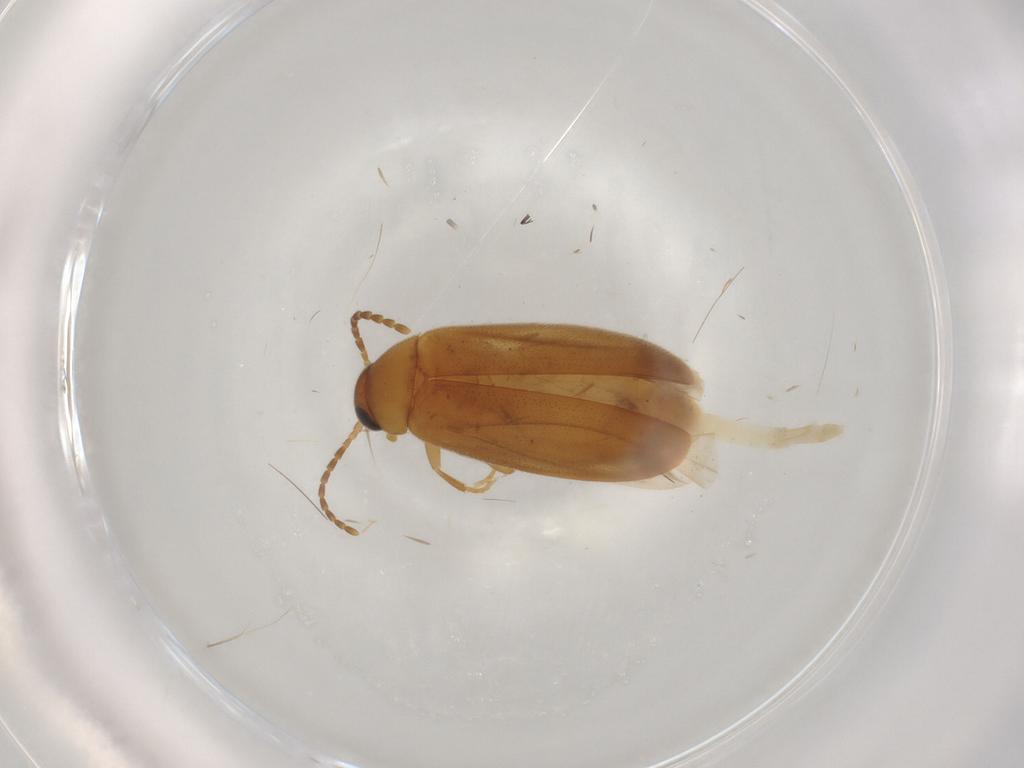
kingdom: Animalia
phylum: Arthropoda
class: Insecta
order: Coleoptera
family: Scraptiidae
